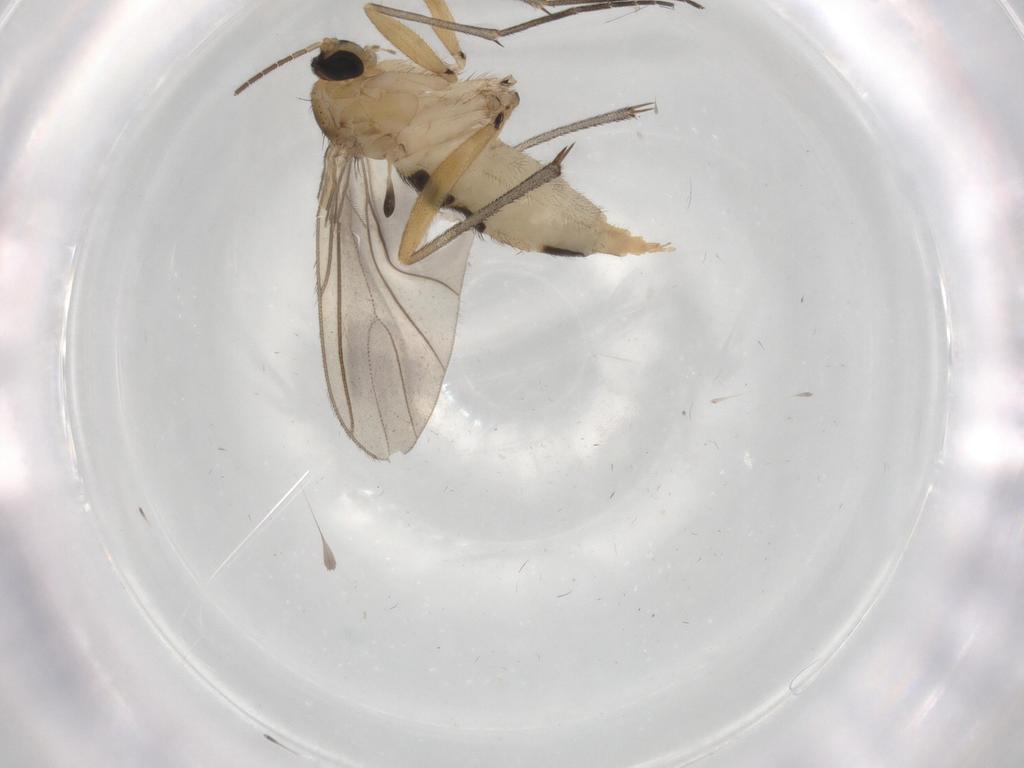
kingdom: Animalia
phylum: Arthropoda
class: Insecta
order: Diptera
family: Sciaridae
